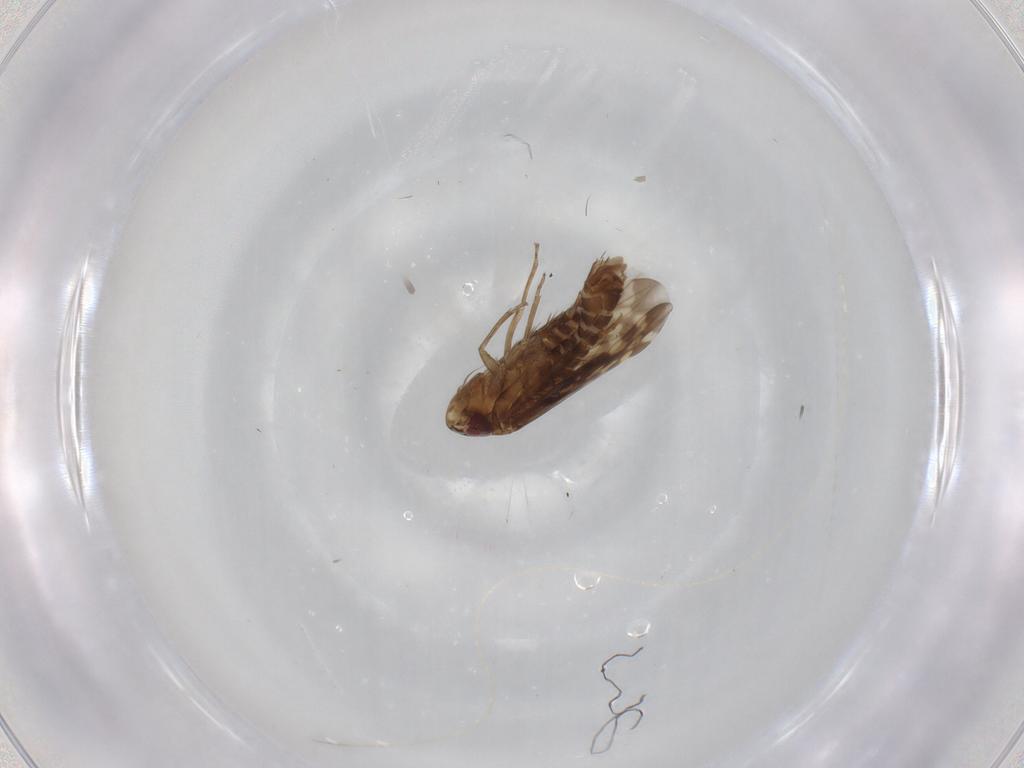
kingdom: Animalia
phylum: Arthropoda
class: Insecta
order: Hemiptera
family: Cicadellidae
